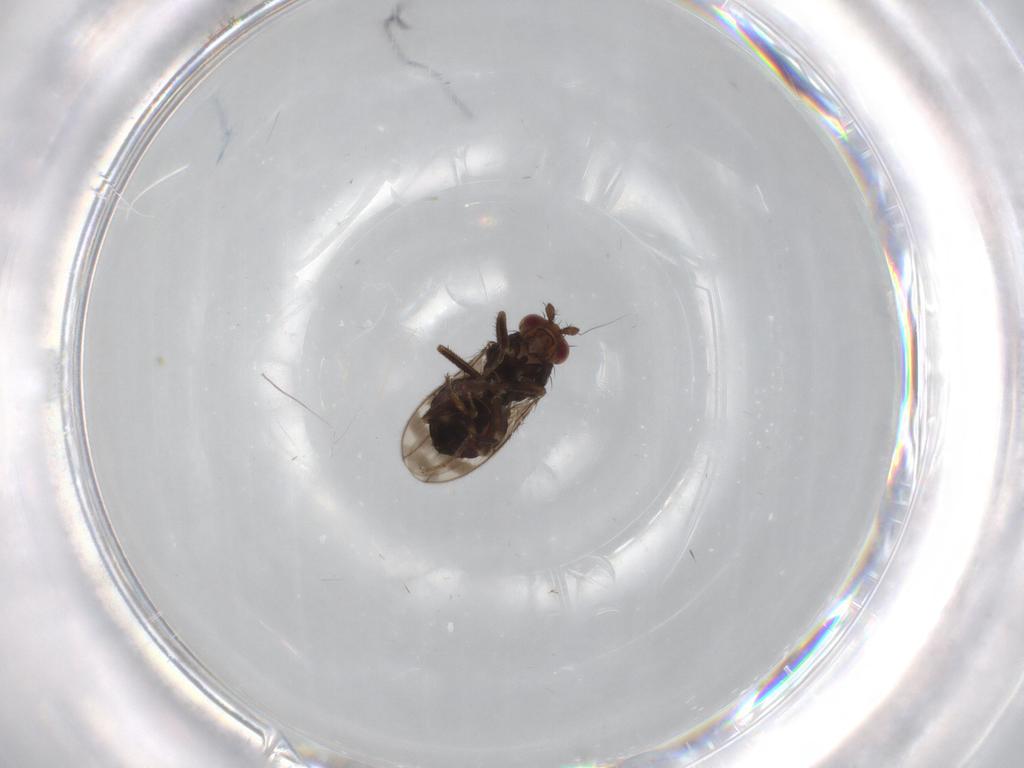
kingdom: Animalia
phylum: Arthropoda
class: Insecta
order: Diptera
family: Sphaeroceridae
